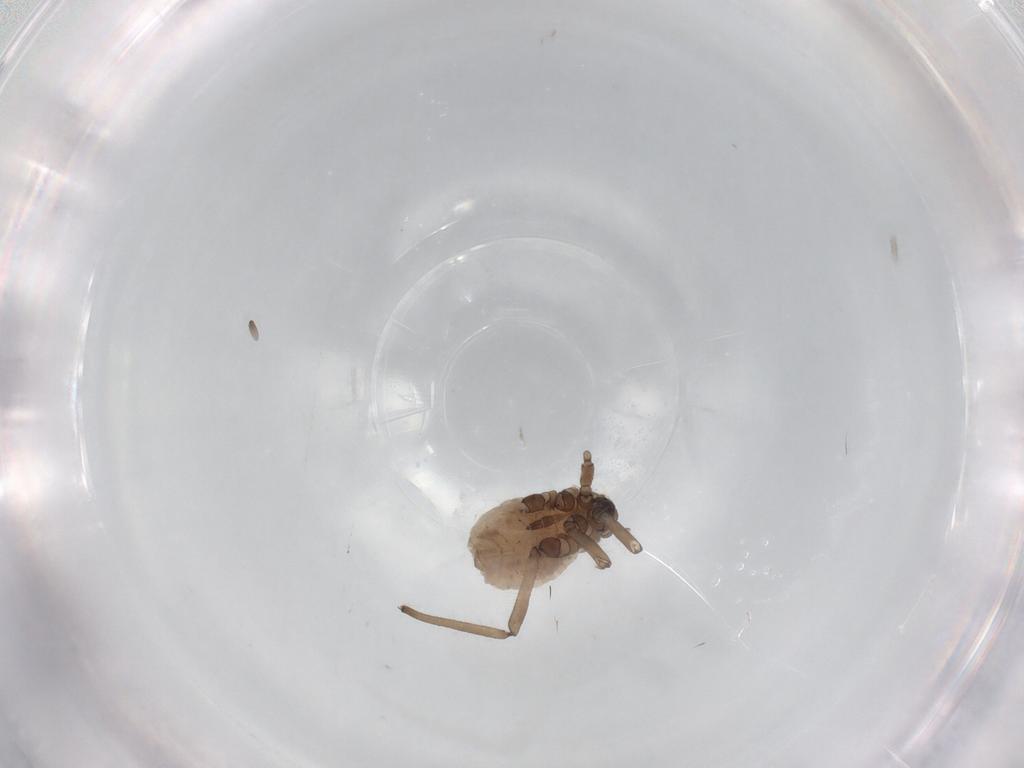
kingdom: Animalia
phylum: Arthropoda
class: Insecta
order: Hemiptera
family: Aphididae
